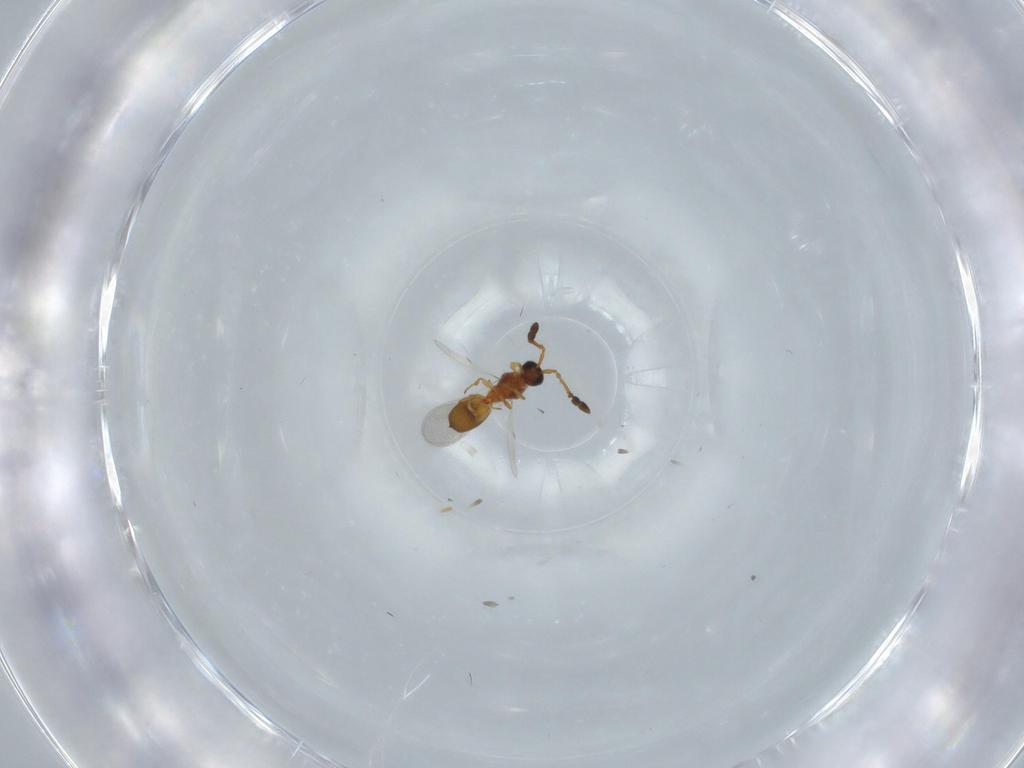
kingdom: Animalia
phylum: Arthropoda
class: Insecta
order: Hymenoptera
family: Diapriidae
